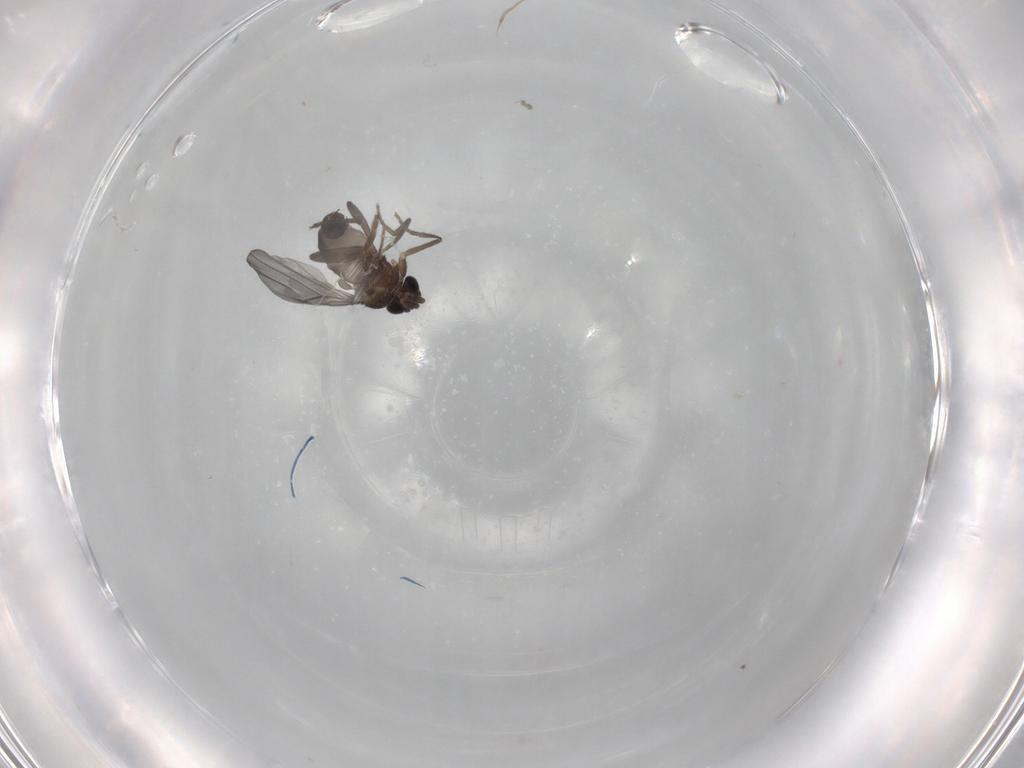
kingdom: Animalia
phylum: Arthropoda
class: Insecta
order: Diptera
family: Phoridae
